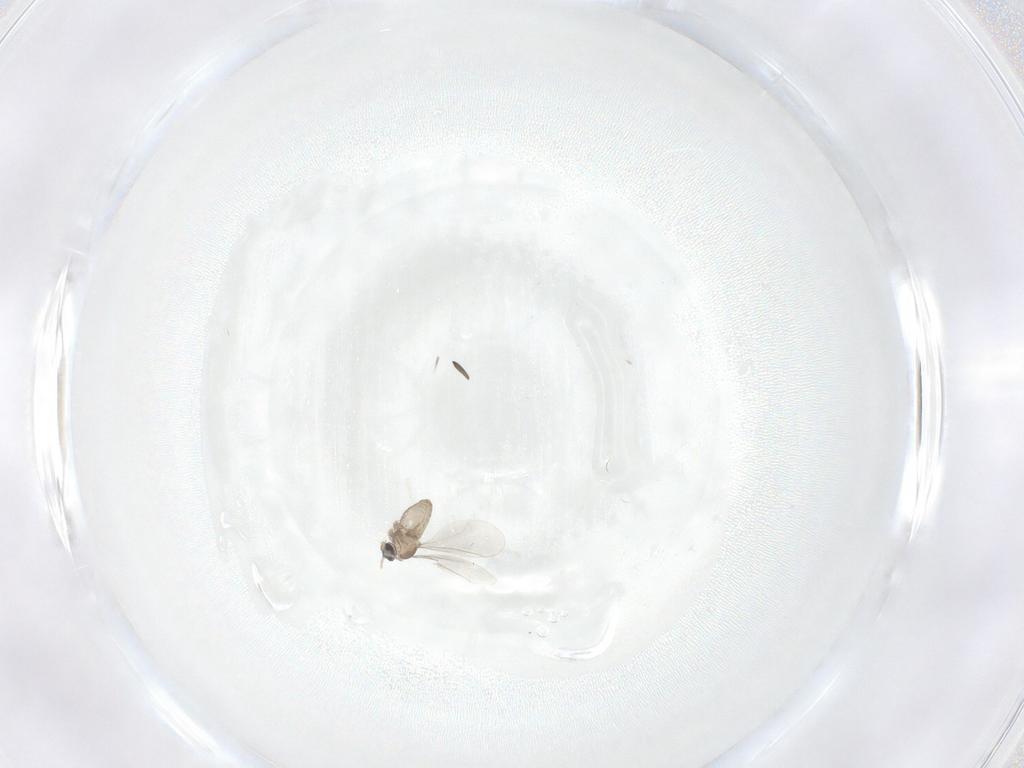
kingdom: Animalia
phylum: Arthropoda
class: Insecta
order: Diptera
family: Cecidomyiidae
